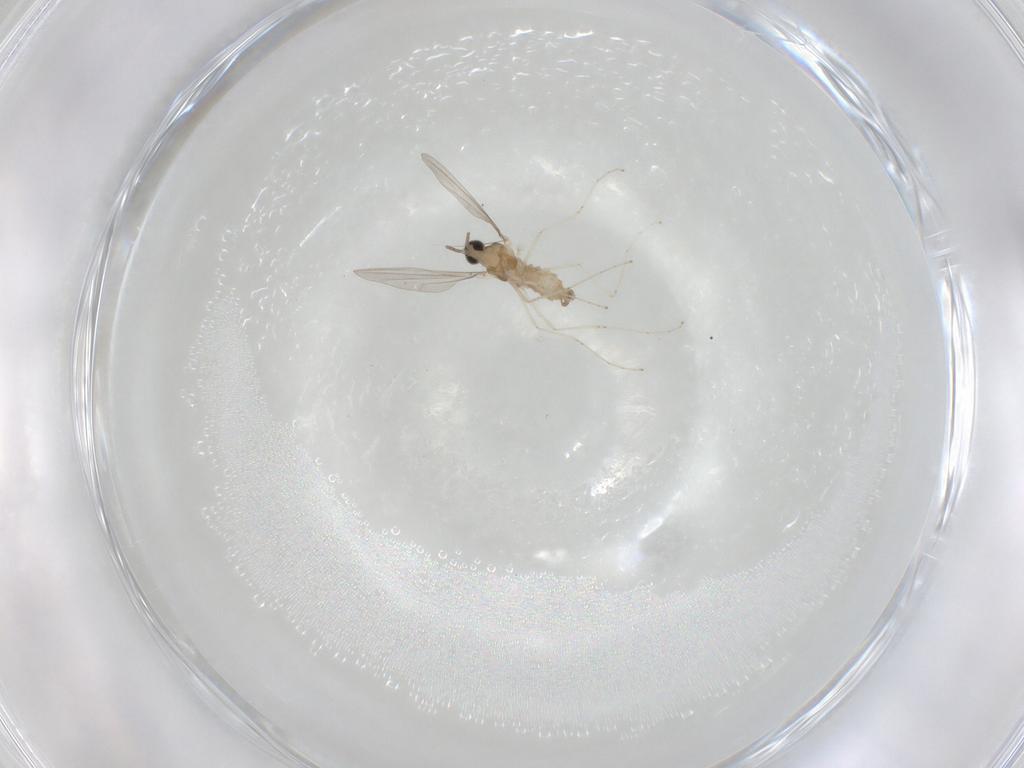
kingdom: Animalia
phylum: Arthropoda
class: Insecta
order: Diptera
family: Cecidomyiidae
